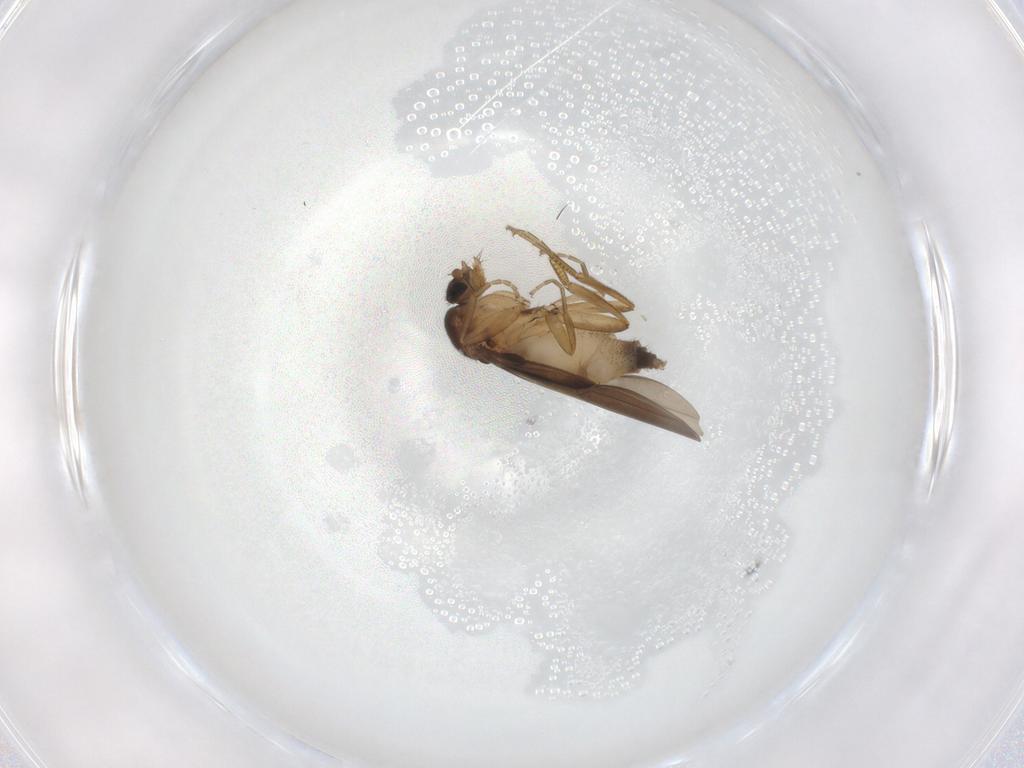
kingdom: Animalia
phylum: Arthropoda
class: Insecta
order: Diptera
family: Phoridae
